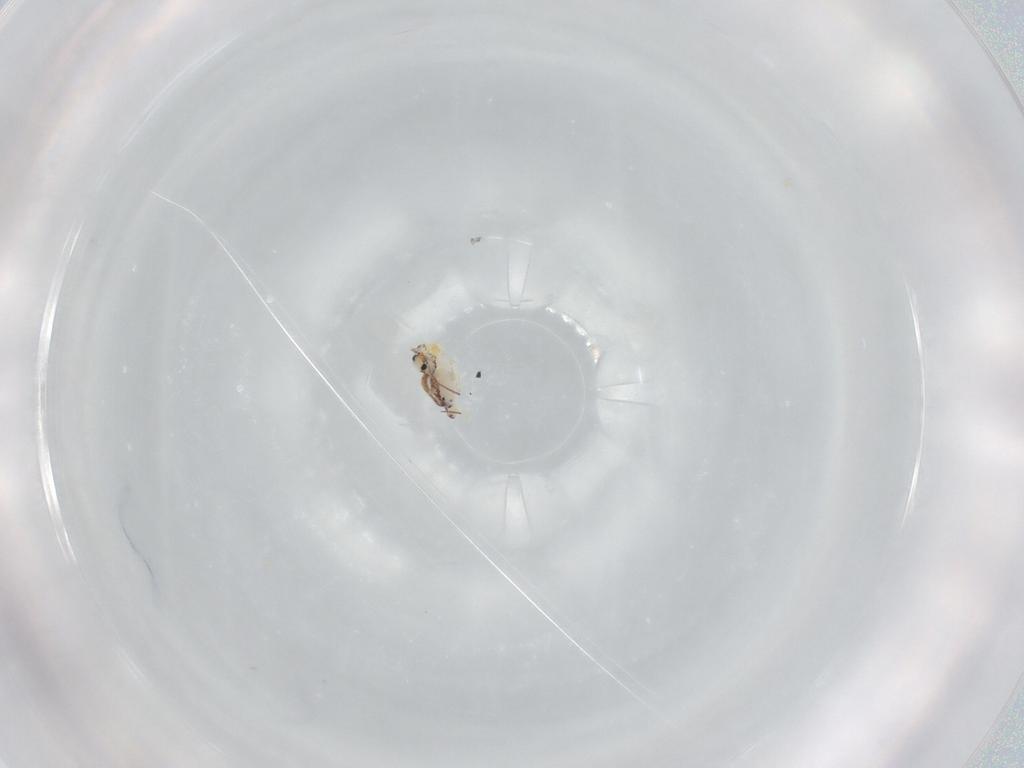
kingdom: Animalia
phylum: Arthropoda
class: Collembola
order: Symphypleona
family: Bourletiellidae
